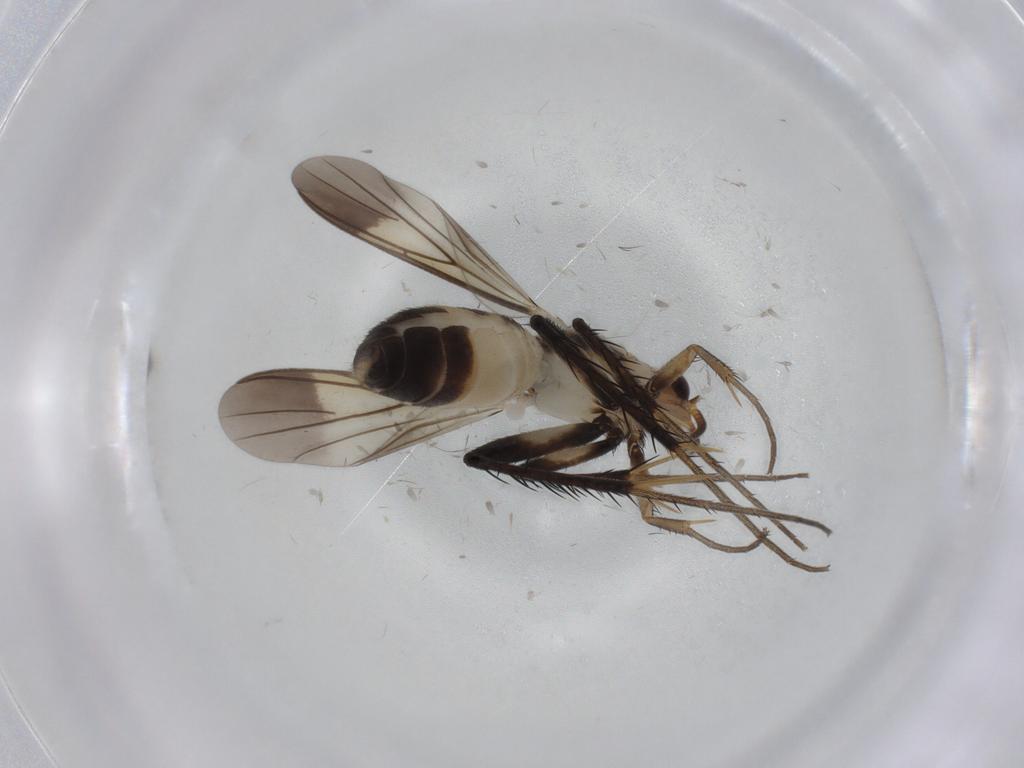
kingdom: Animalia
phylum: Arthropoda
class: Insecta
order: Diptera
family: Mycetophilidae
